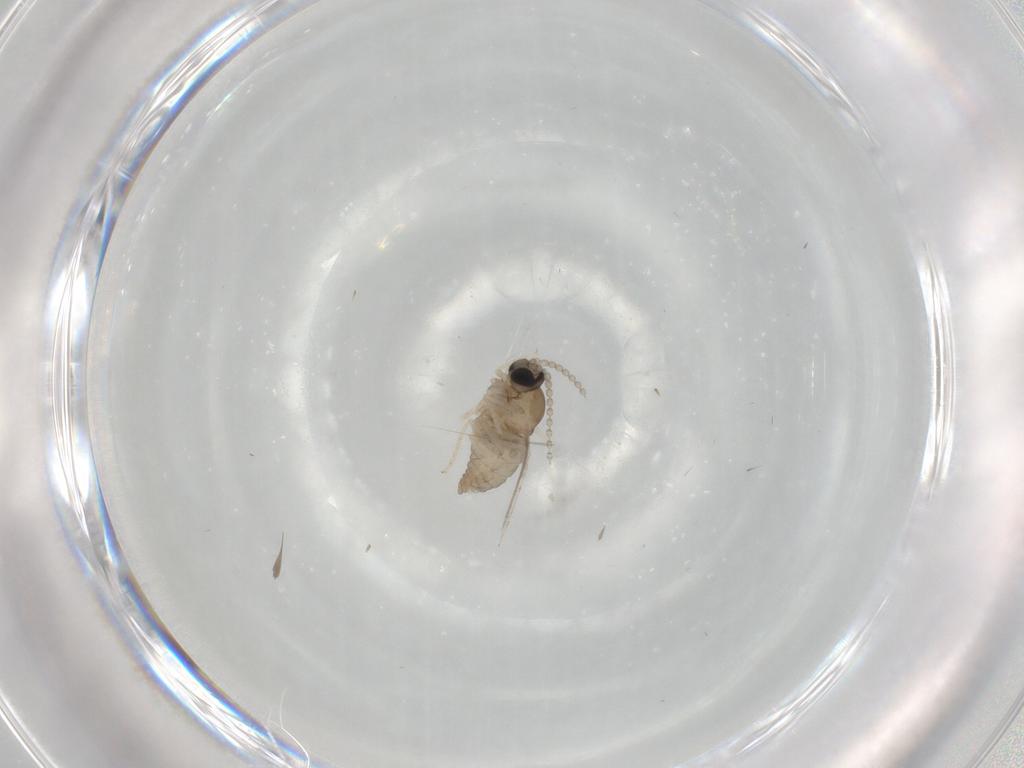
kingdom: Animalia
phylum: Arthropoda
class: Insecta
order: Diptera
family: Cecidomyiidae
